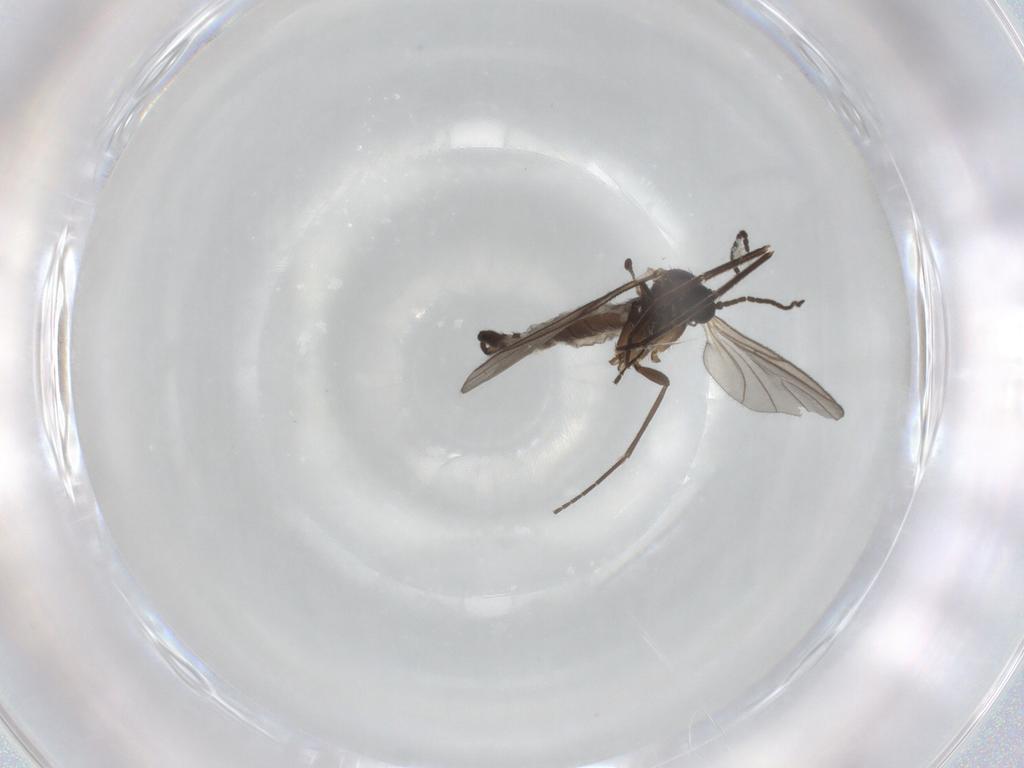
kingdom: Animalia
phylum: Arthropoda
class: Insecta
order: Diptera
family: Sciaridae
